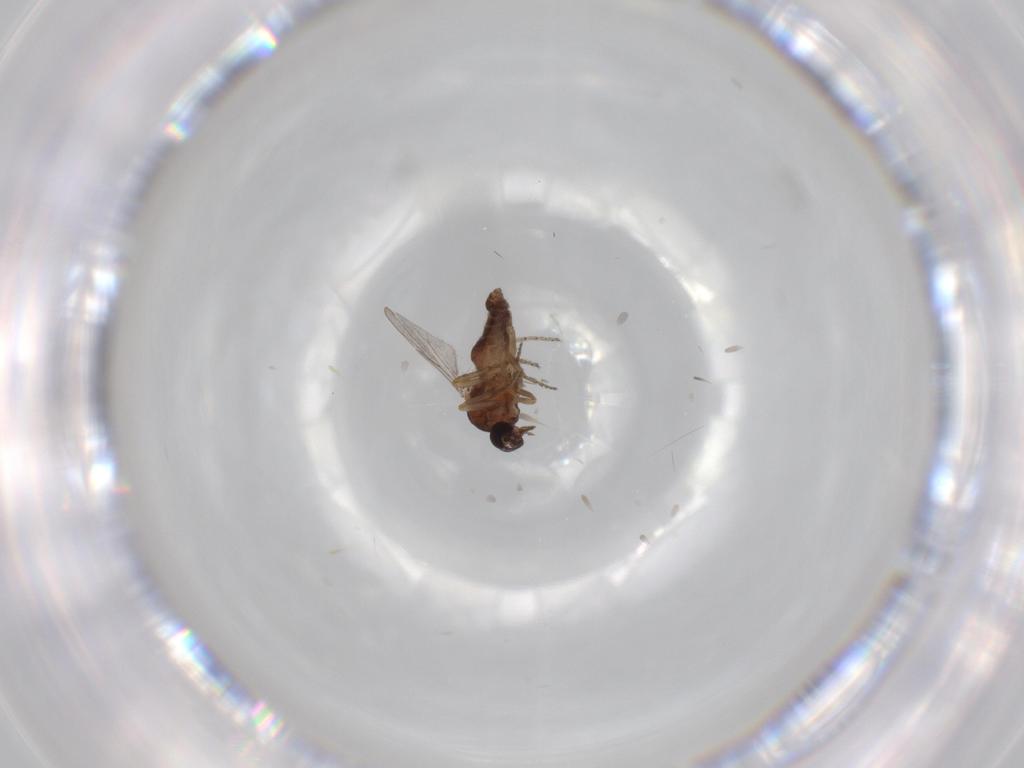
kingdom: Animalia
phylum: Arthropoda
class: Insecta
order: Diptera
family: Ceratopogonidae
